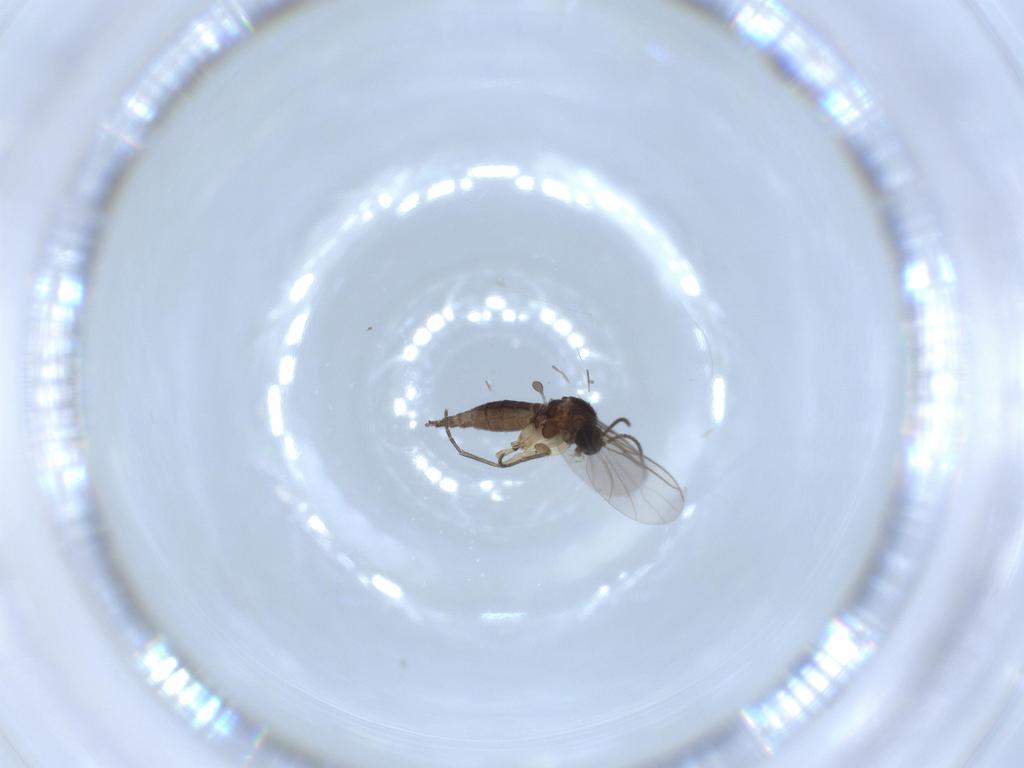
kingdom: Animalia
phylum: Arthropoda
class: Insecta
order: Diptera
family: Sciaridae
